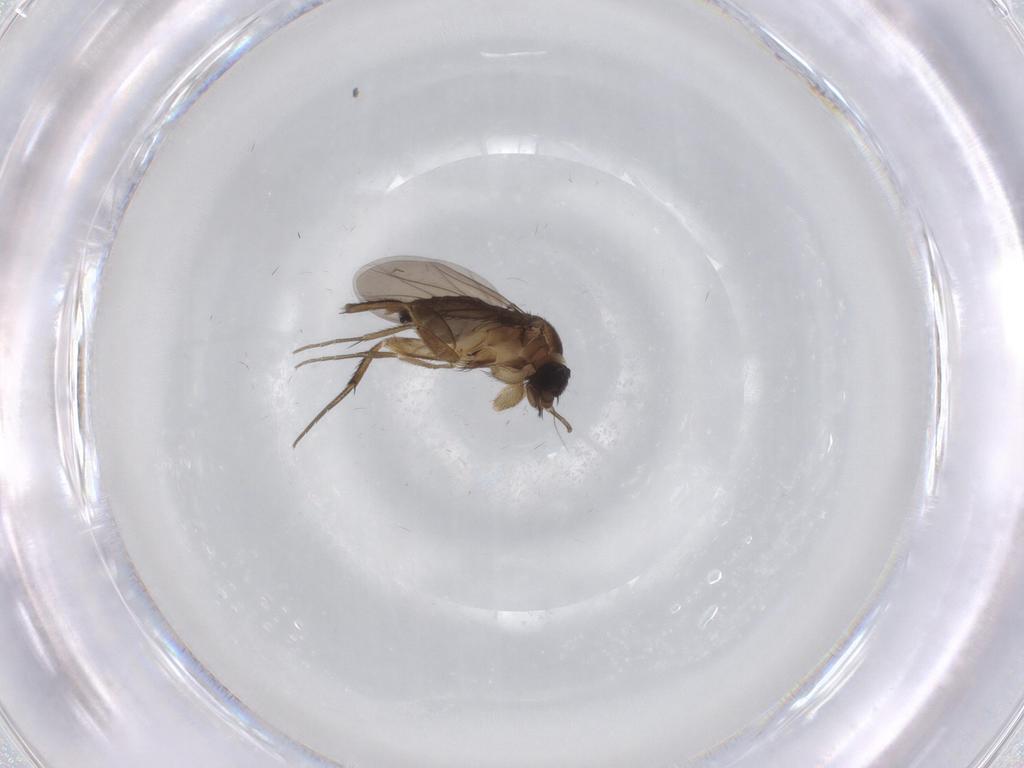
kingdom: Animalia
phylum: Arthropoda
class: Insecta
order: Diptera
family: Phoridae
